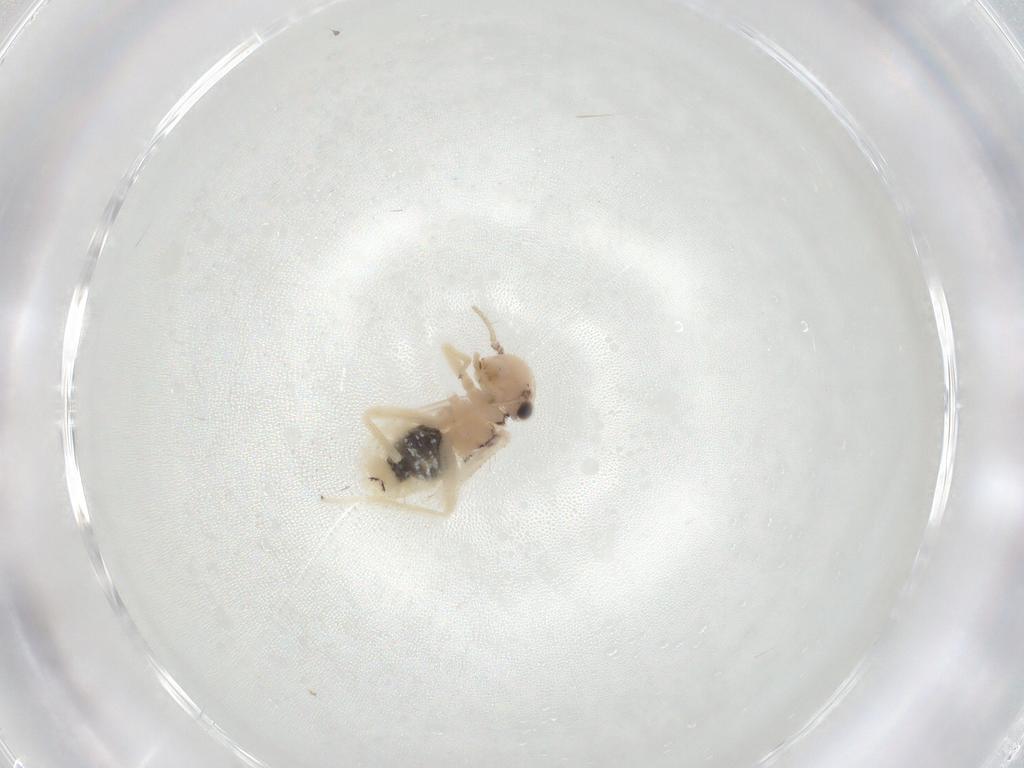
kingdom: Animalia
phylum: Arthropoda
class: Insecta
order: Psocodea
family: Philotarsidae
